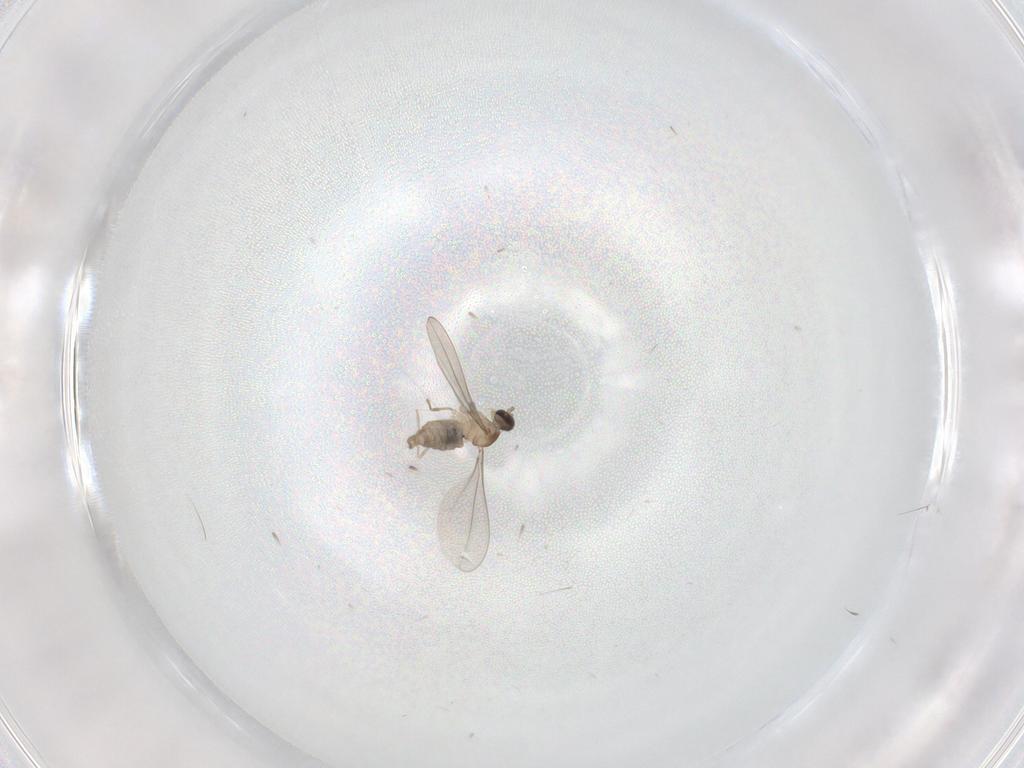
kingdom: Animalia
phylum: Arthropoda
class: Insecta
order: Diptera
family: Cecidomyiidae
